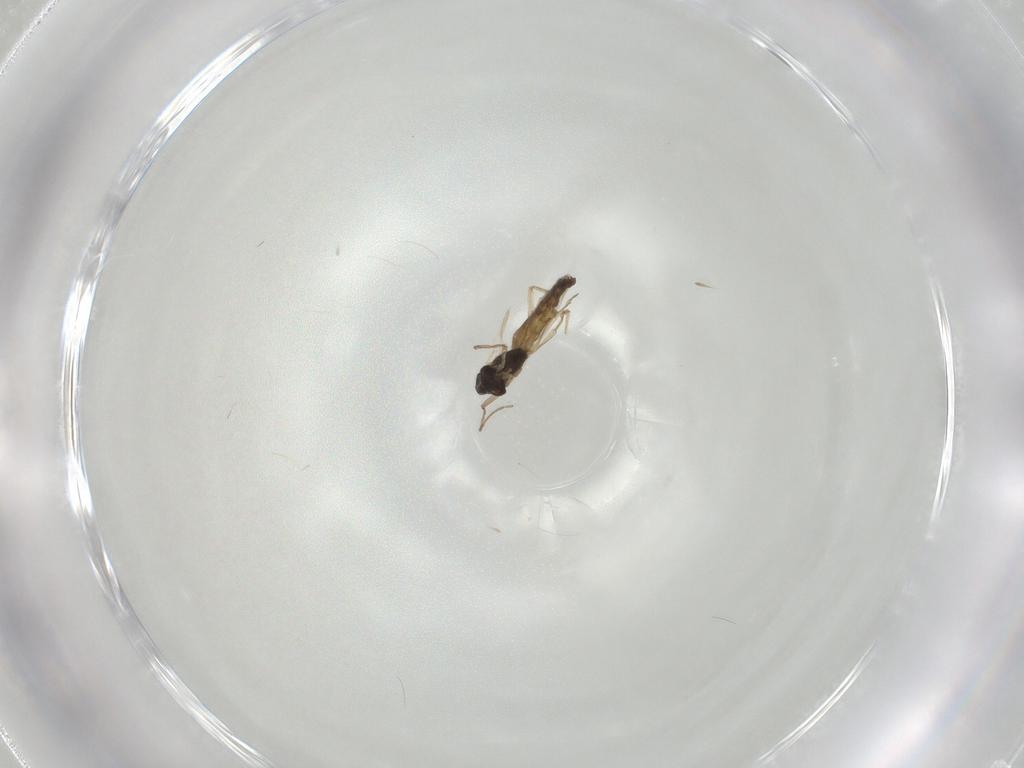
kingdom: Animalia
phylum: Arthropoda
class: Insecta
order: Diptera
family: Chironomidae
